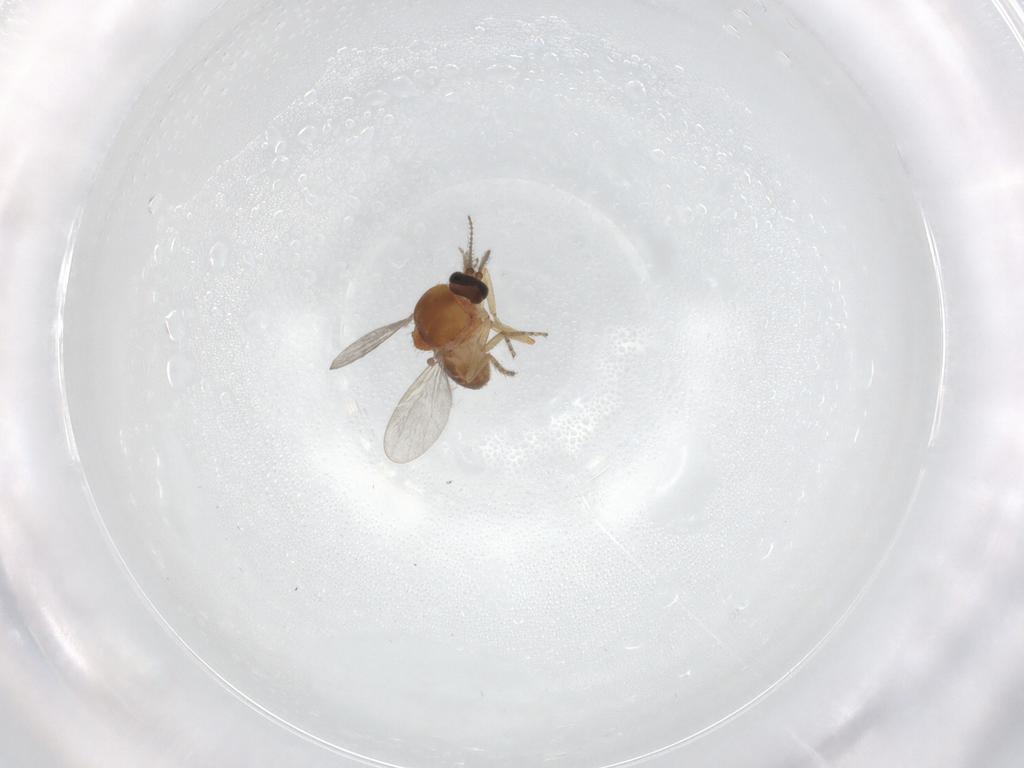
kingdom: Animalia
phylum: Arthropoda
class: Insecta
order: Diptera
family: Ceratopogonidae
